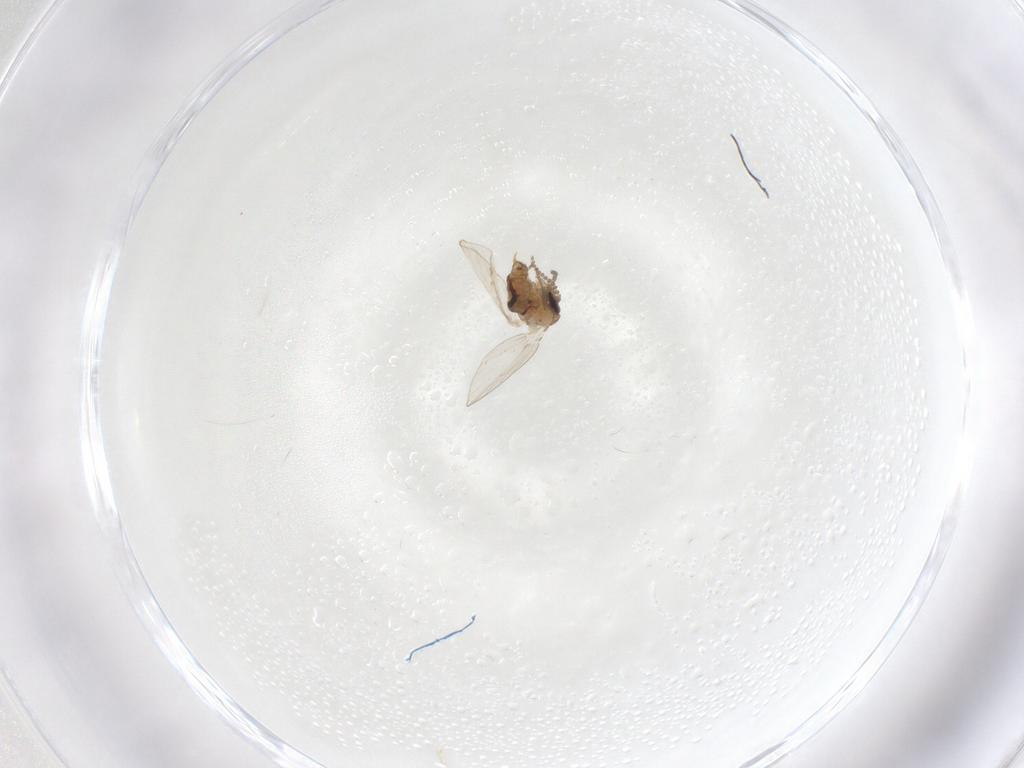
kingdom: Animalia
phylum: Arthropoda
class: Insecta
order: Diptera
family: Psychodidae
